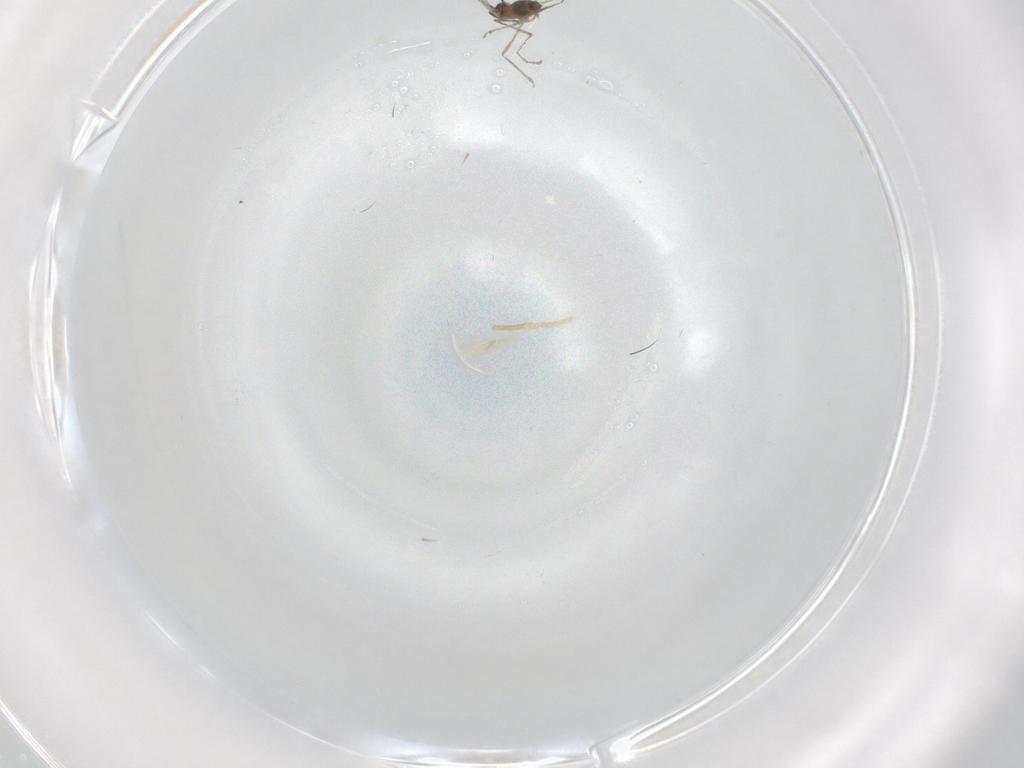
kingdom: Animalia
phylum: Arthropoda
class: Insecta
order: Diptera
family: Cecidomyiidae
